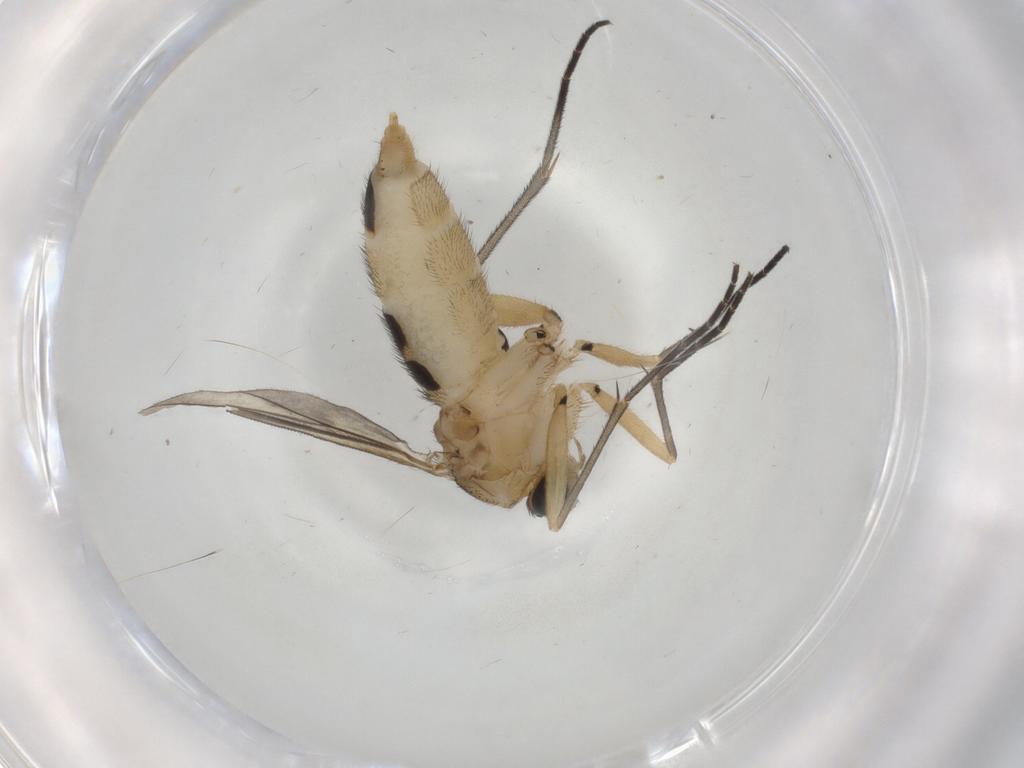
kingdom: Animalia
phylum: Arthropoda
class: Insecta
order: Diptera
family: Sciaridae
